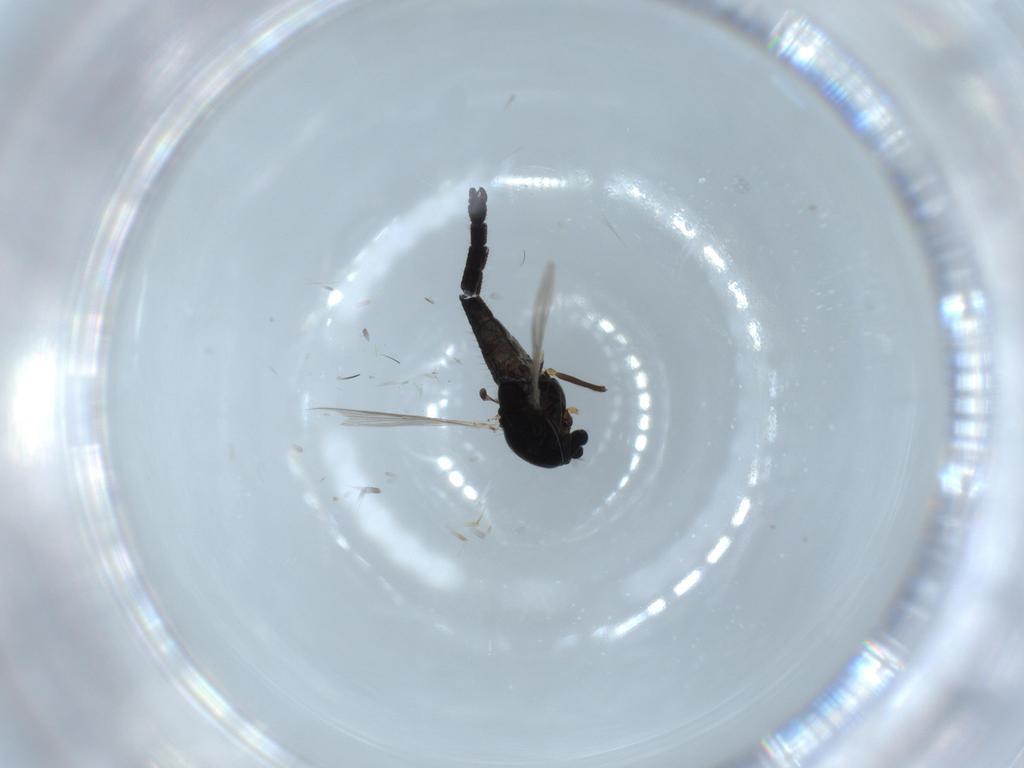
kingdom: Animalia
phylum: Arthropoda
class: Insecta
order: Diptera
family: Chironomidae
